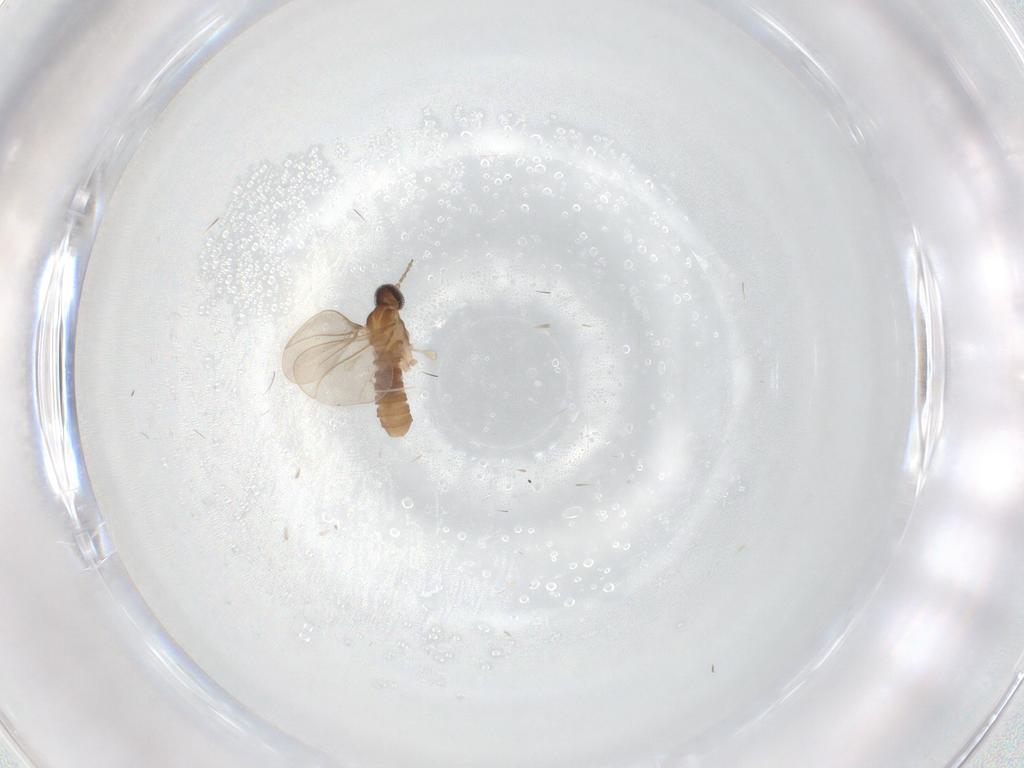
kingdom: Animalia
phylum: Arthropoda
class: Insecta
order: Diptera
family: Cecidomyiidae
